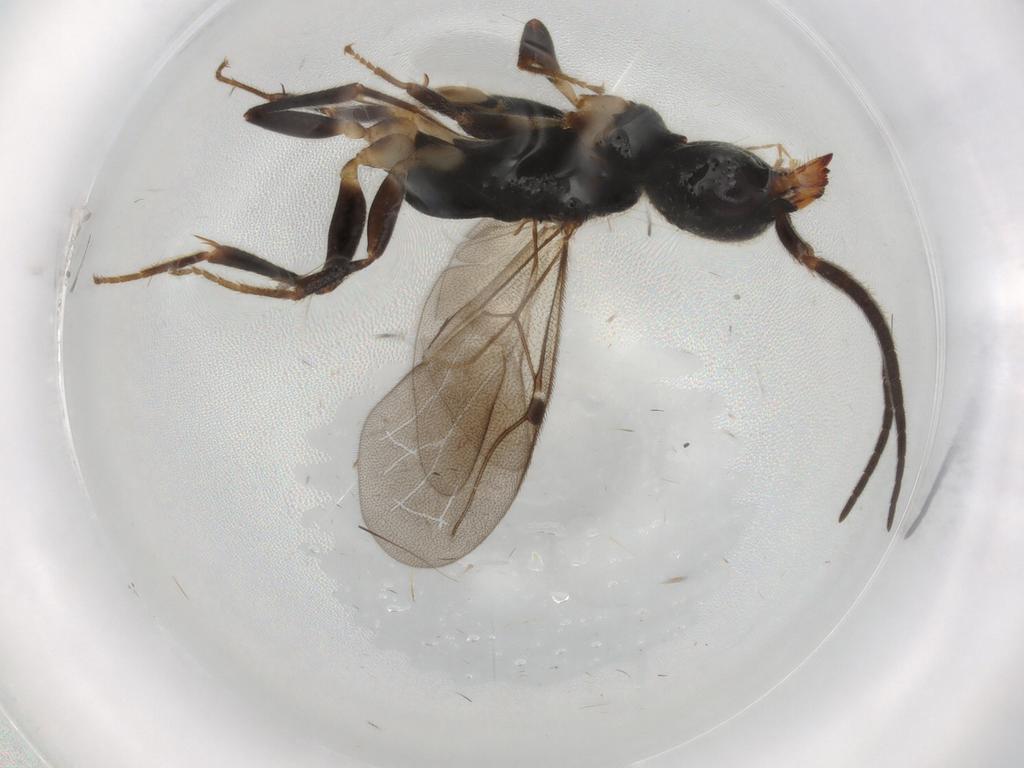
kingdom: Animalia
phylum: Arthropoda
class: Insecta
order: Hymenoptera
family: Bethylidae
